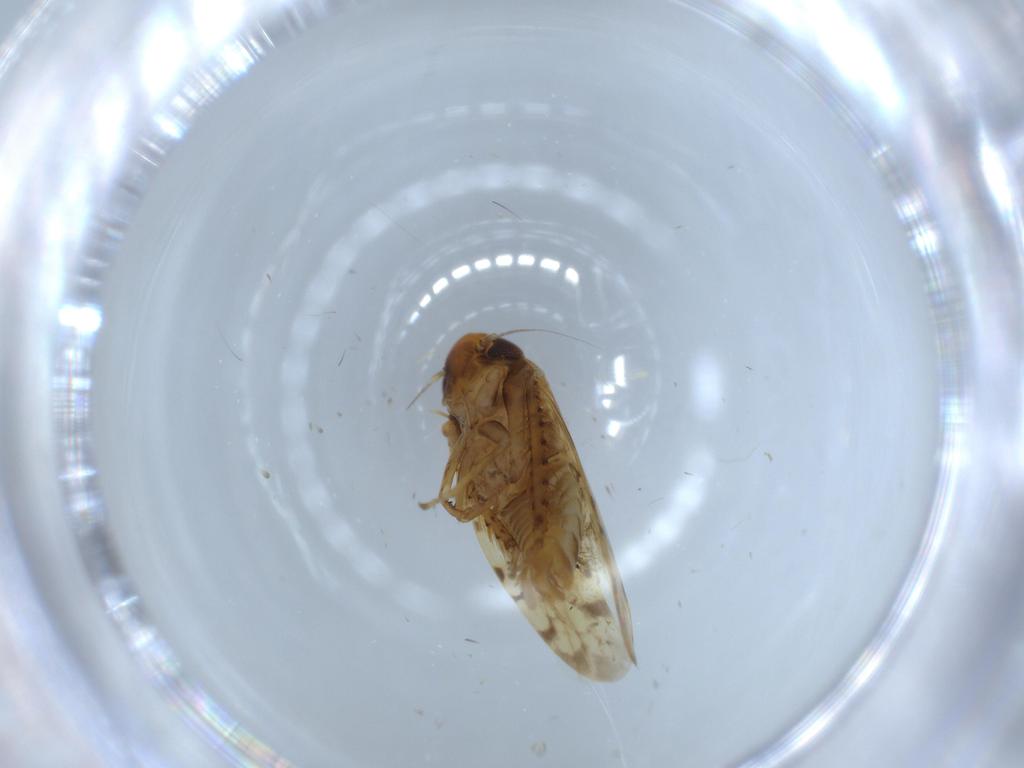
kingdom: Animalia
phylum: Arthropoda
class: Insecta
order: Hemiptera
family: Cicadellidae
